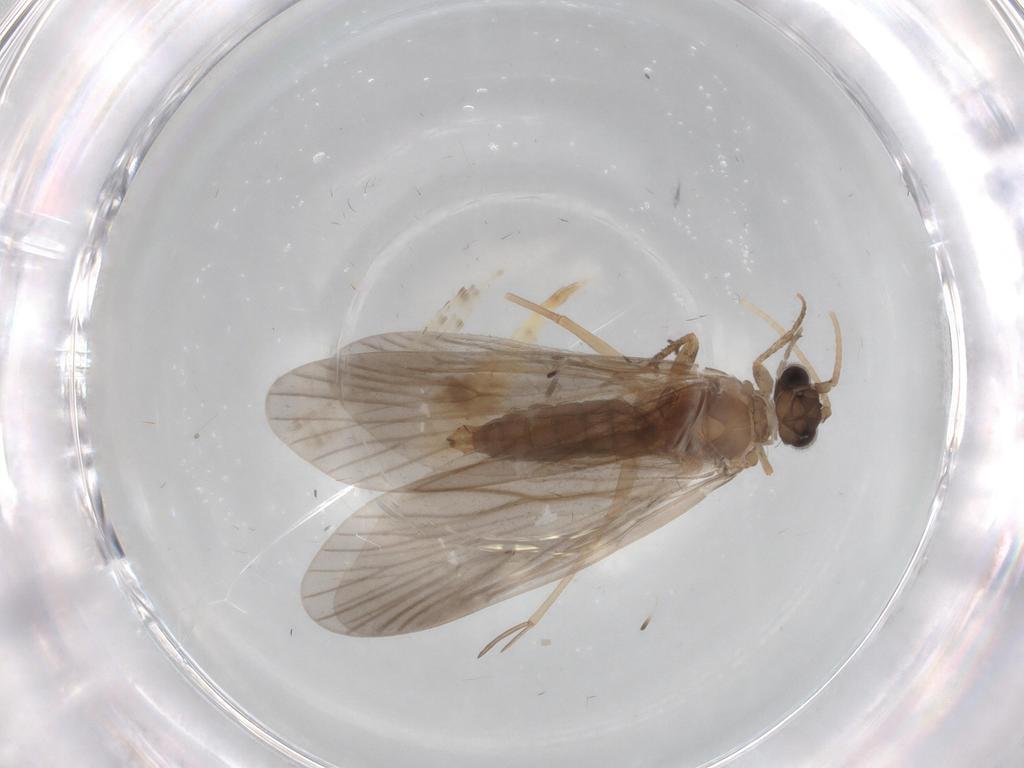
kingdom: Animalia
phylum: Arthropoda
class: Insecta
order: Trichoptera
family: Philopotamidae
